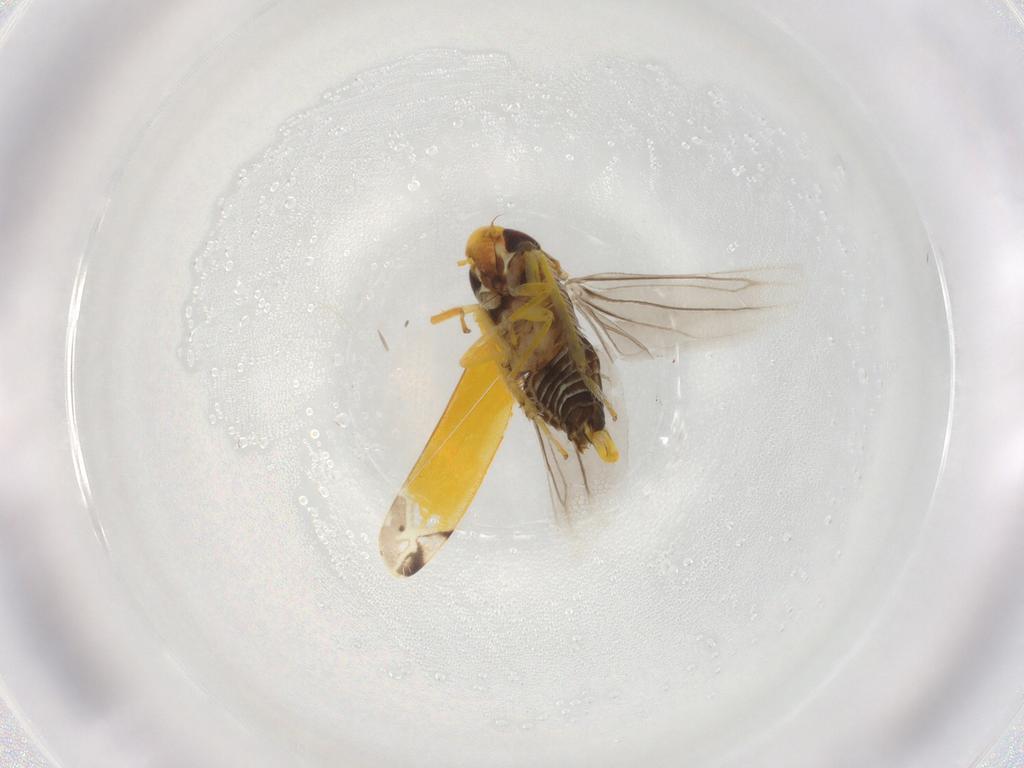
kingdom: Animalia
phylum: Arthropoda
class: Insecta
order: Hemiptera
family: Cicadellidae
